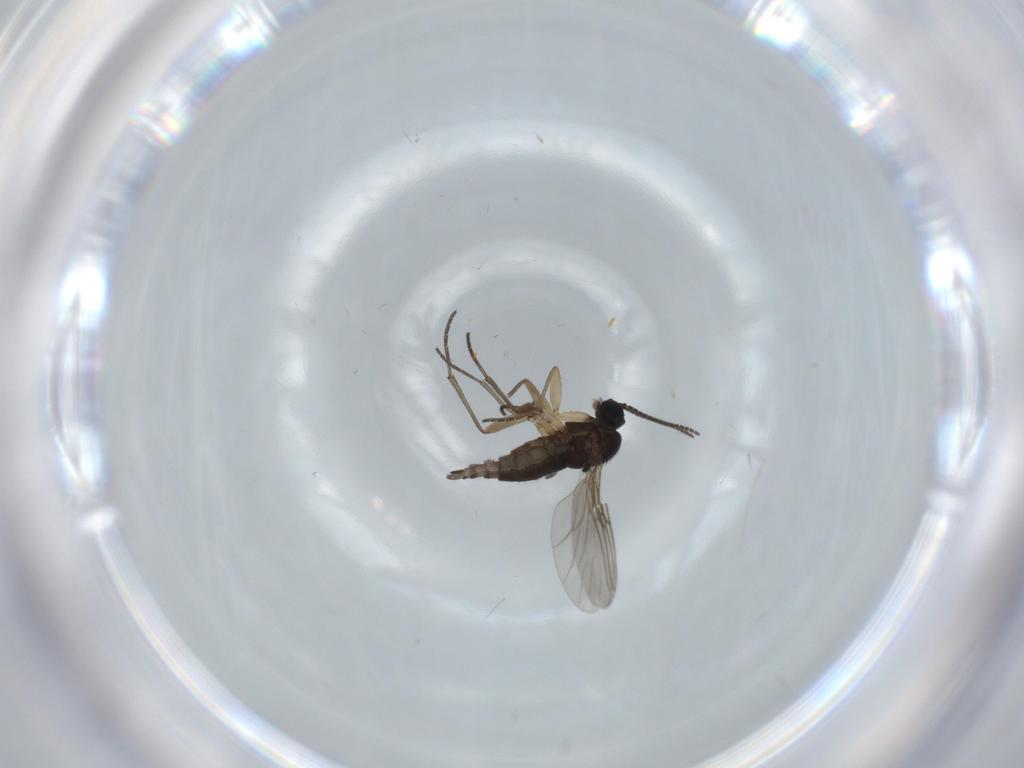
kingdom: Animalia
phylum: Arthropoda
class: Insecta
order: Diptera
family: Sciaridae
